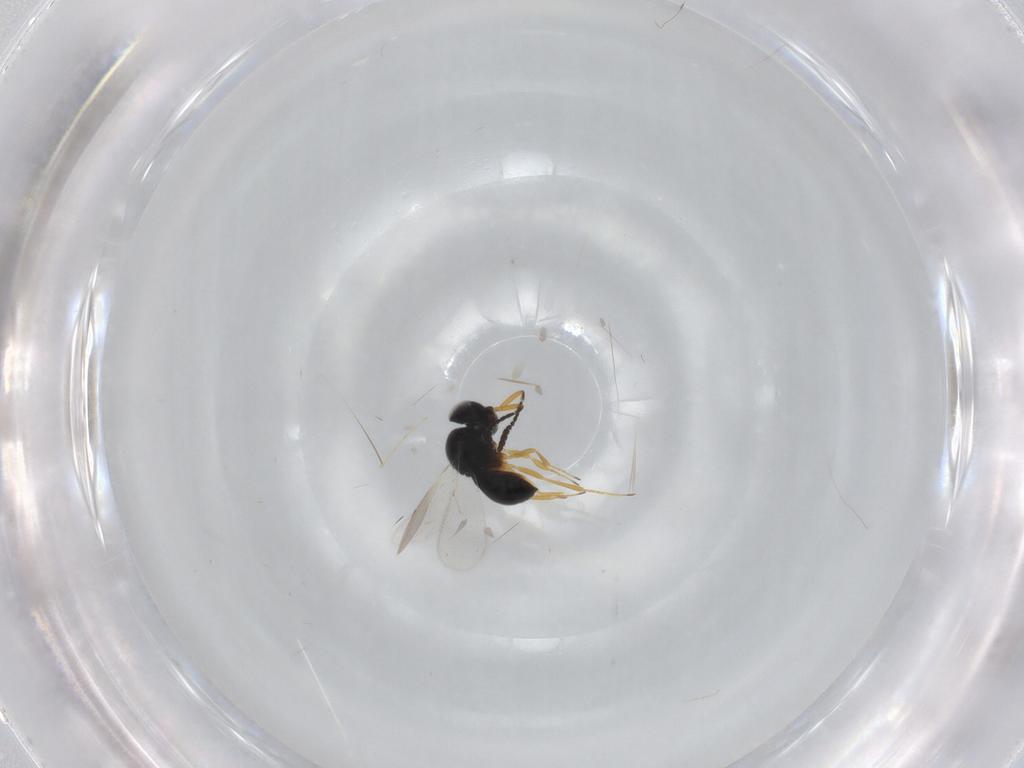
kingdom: Animalia
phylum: Arthropoda
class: Insecta
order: Hymenoptera
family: Scelionidae
